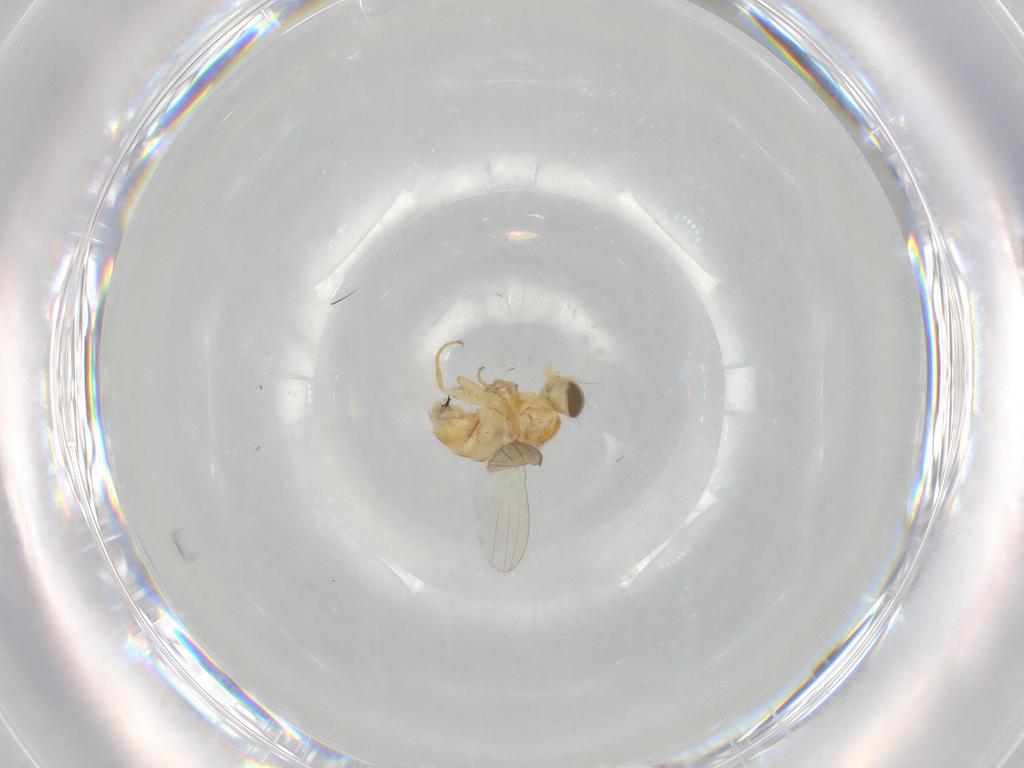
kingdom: Animalia
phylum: Arthropoda
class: Insecta
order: Diptera
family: Chyromyidae
